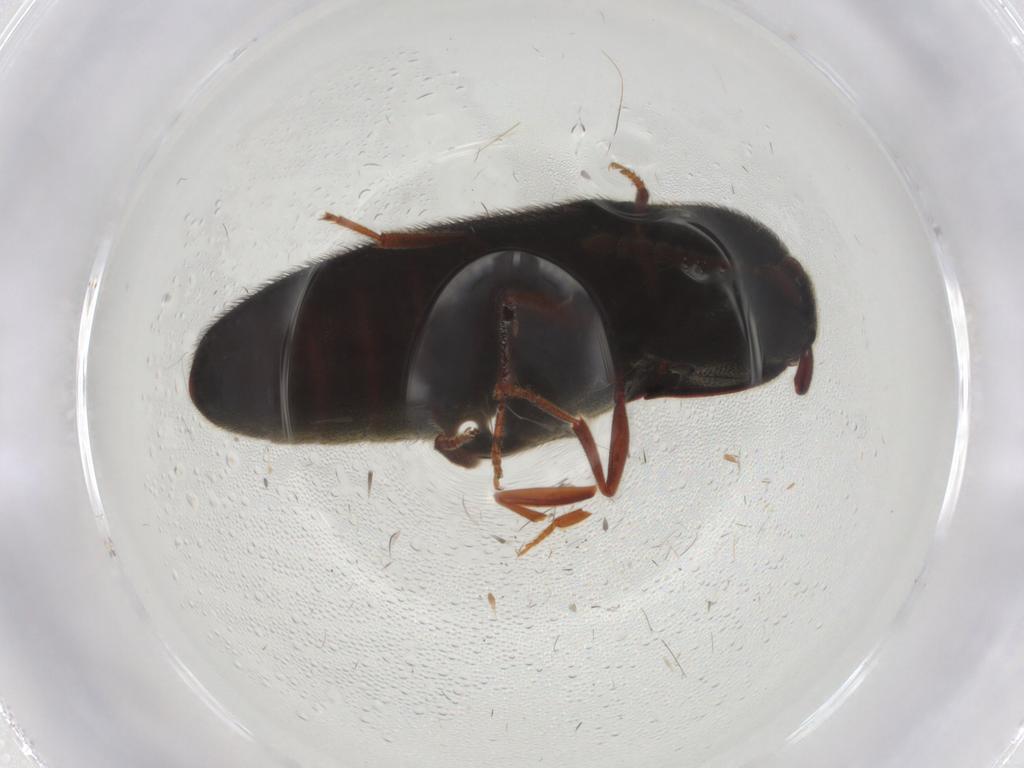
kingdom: Animalia
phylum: Arthropoda
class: Insecta
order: Coleoptera
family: Eucnemidae
